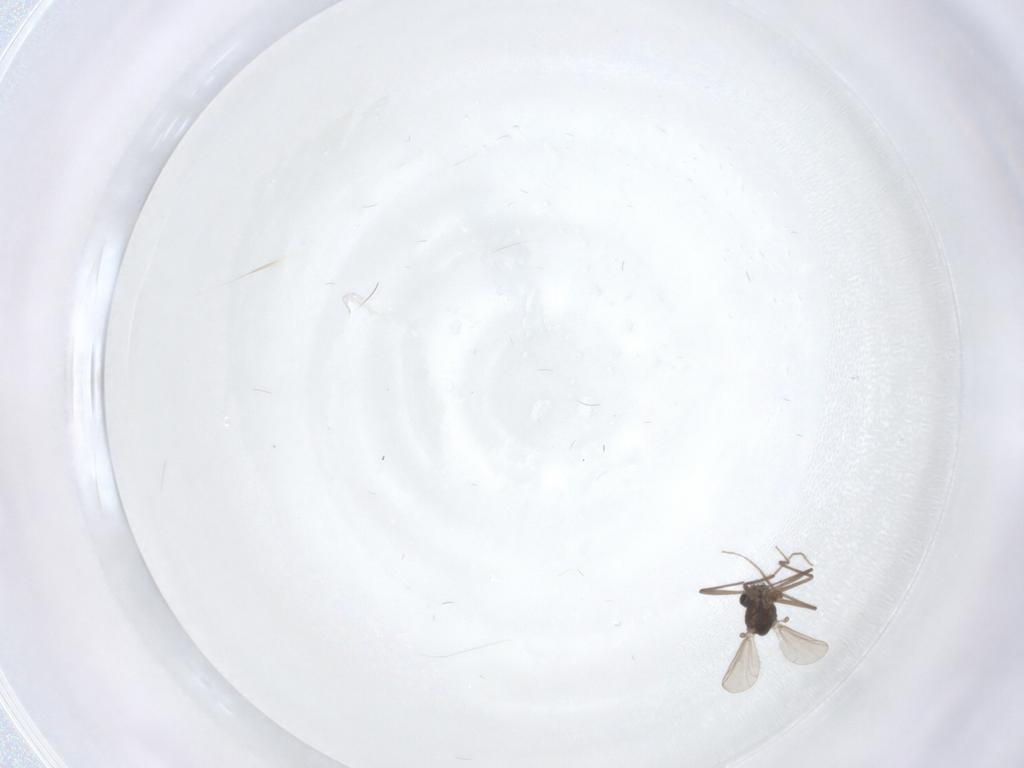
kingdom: Animalia
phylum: Arthropoda
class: Insecta
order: Diptera
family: Chironomidae
